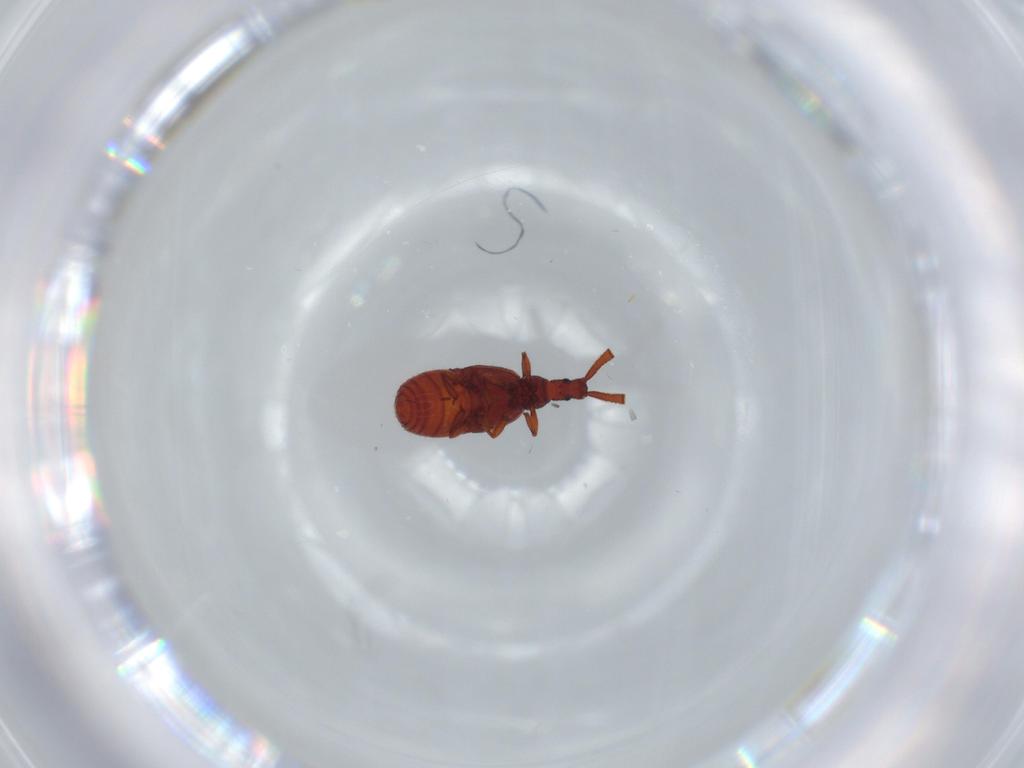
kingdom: Animalia
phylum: Arthropoda
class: Insecta
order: Coleoptera
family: Staphylinidae
